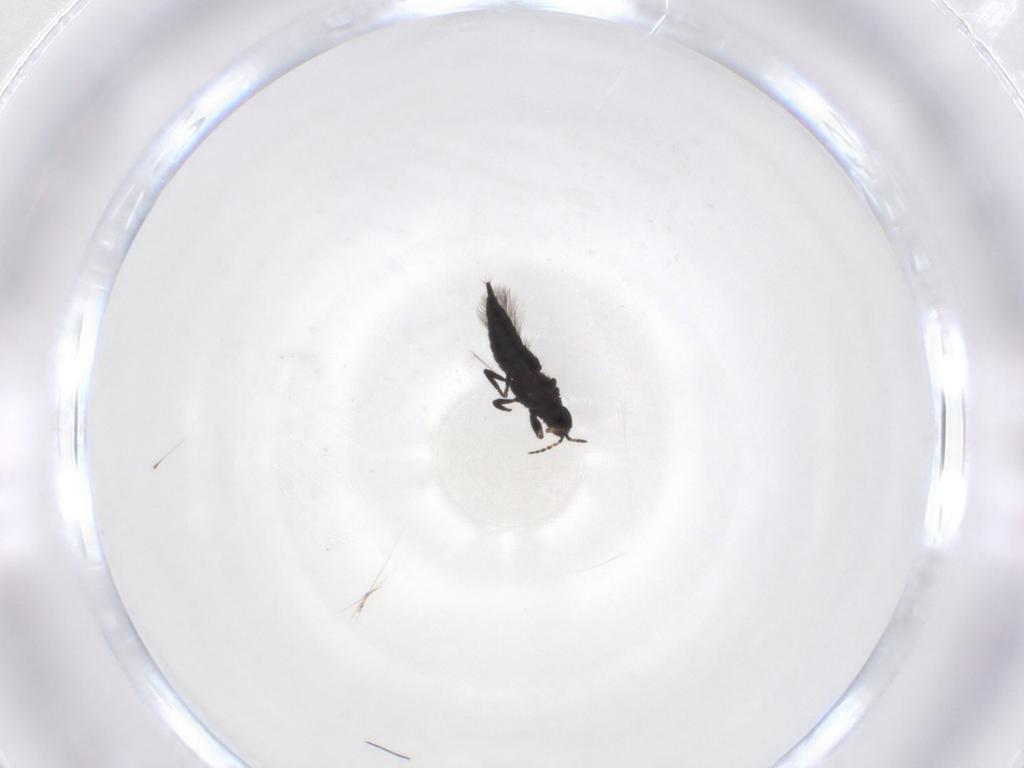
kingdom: Animalia
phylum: Arthropoda
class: Insecta
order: Thysanoptera
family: Phlaeothripidae
